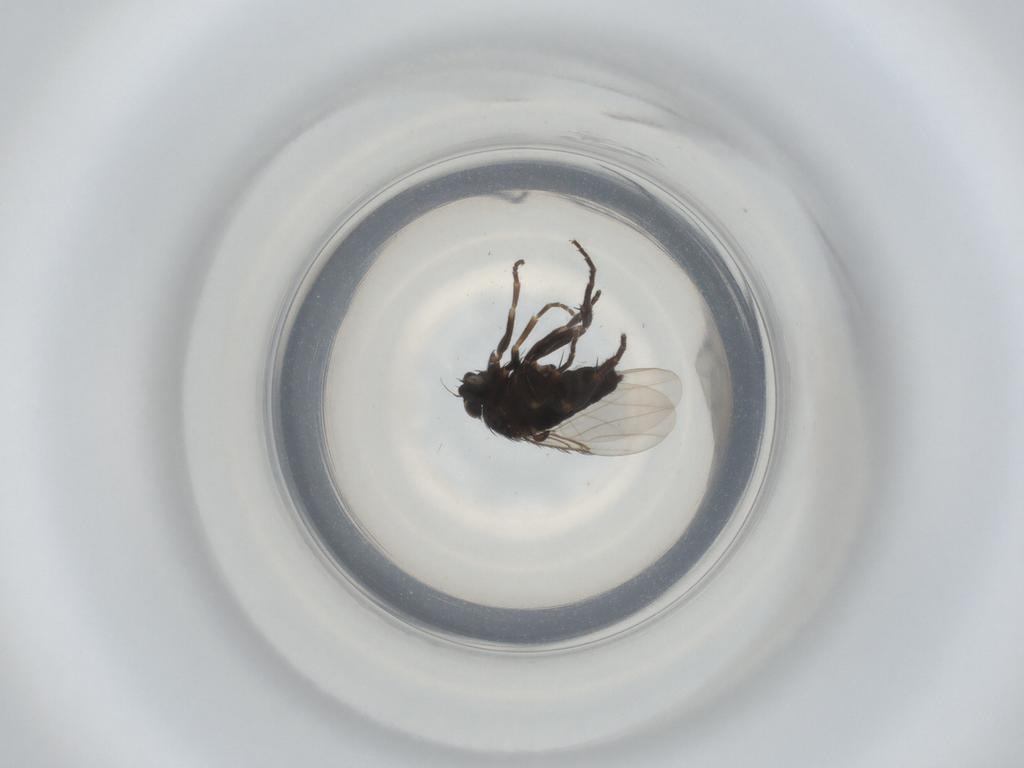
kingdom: Animalia
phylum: Arthropoda
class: Insecta
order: Diptera
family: Phoridae
